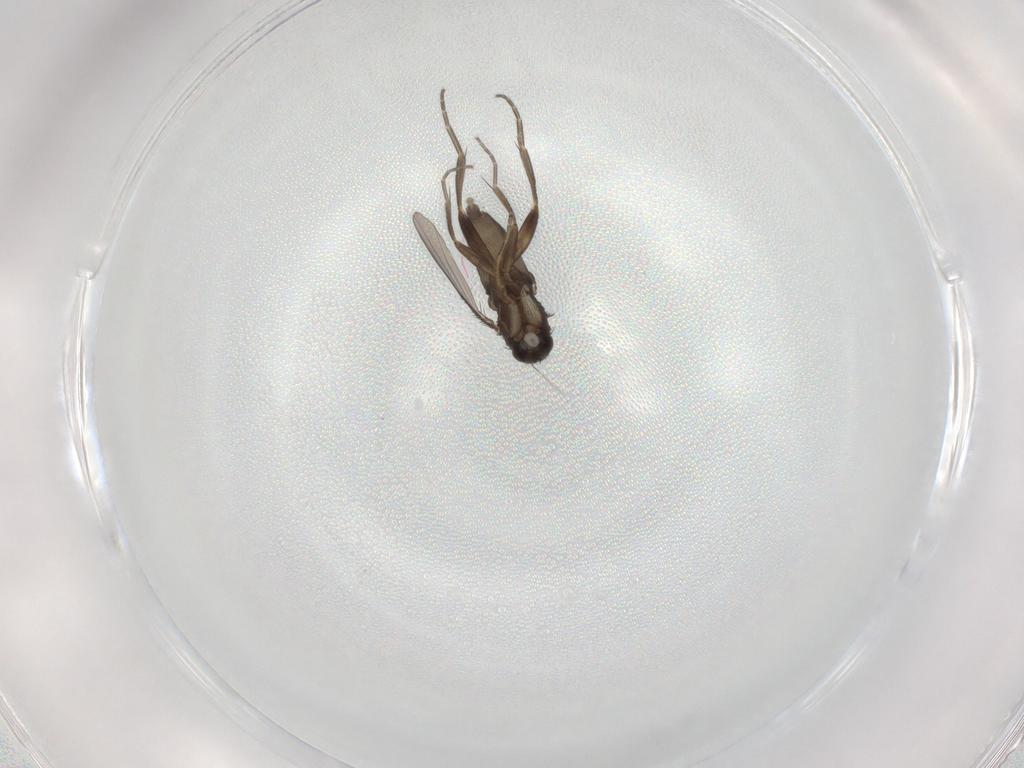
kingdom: Animalia
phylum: Arthropoda
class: Insecta
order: Diptera
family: Phoridae
